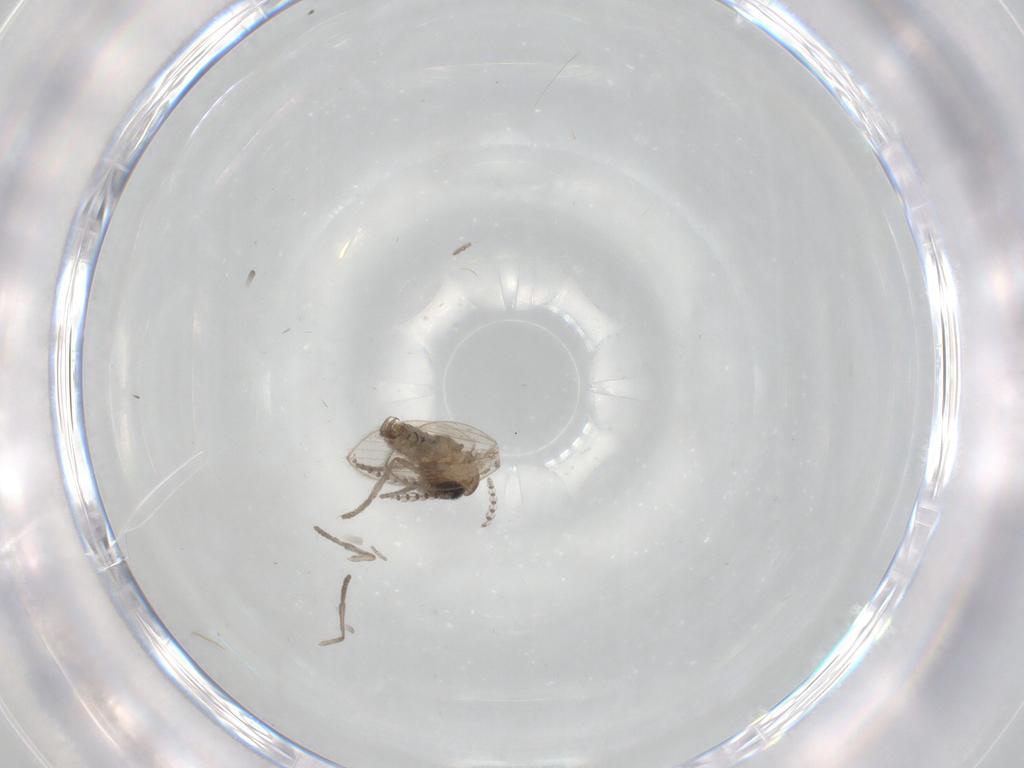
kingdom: Animalia
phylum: Arthropoda
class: Insecta
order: Diptera
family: Psychodidae
